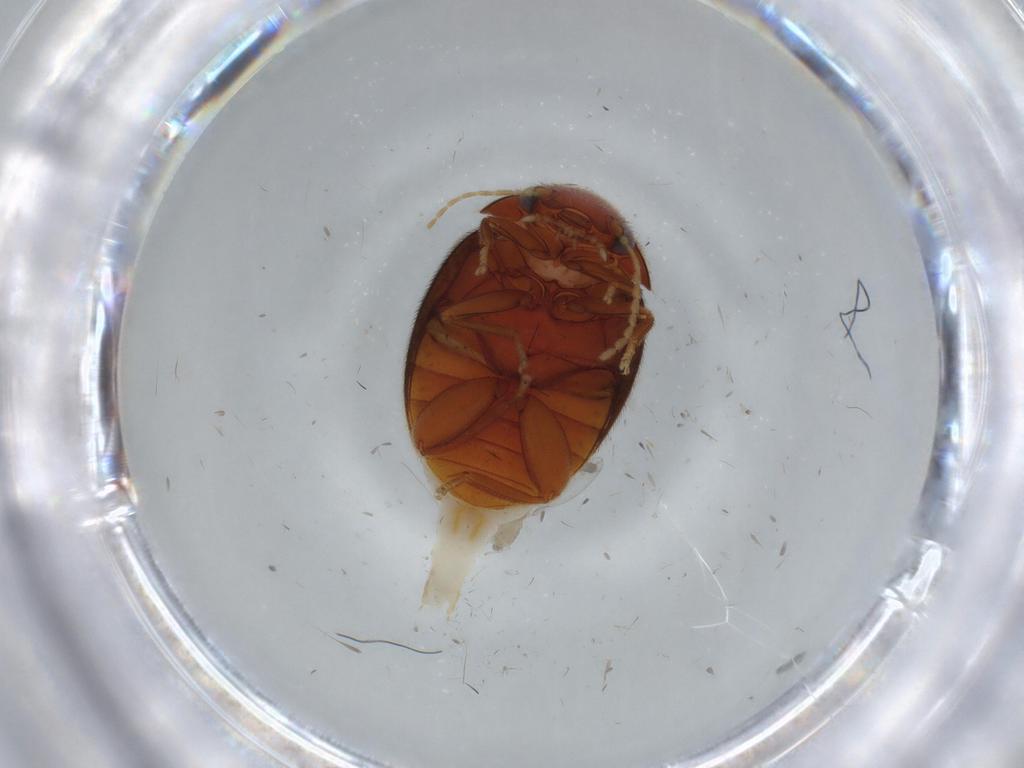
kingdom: Animalia
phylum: Arthropoda
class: Insecta
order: Coleoptera
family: Scirtidae
